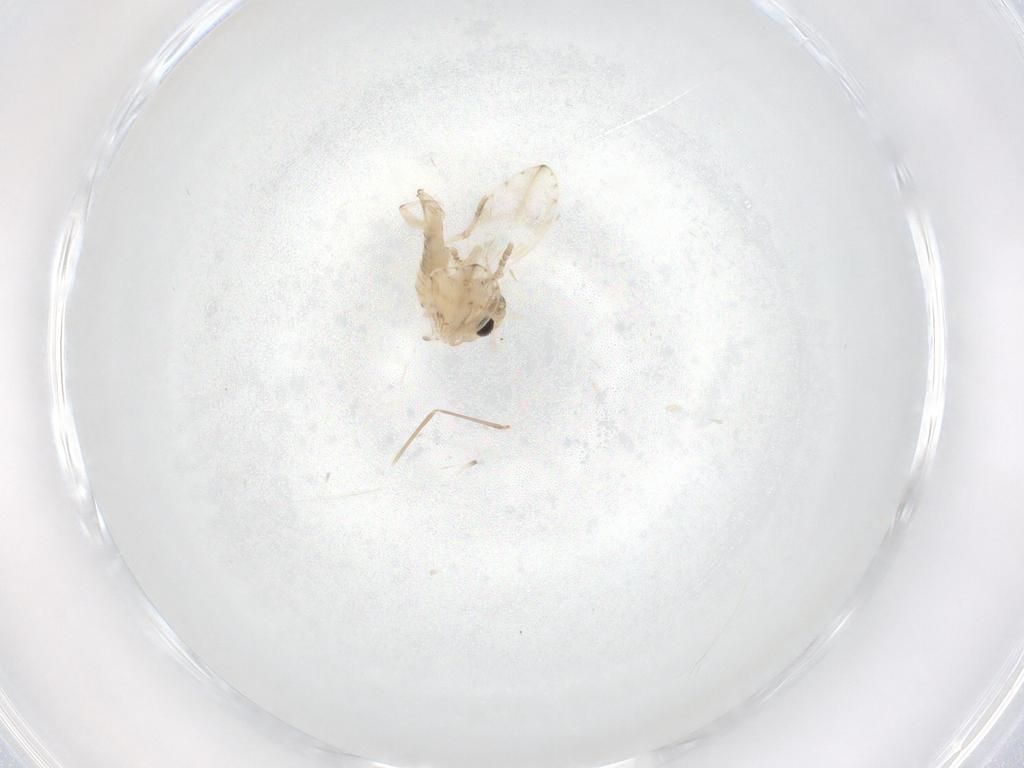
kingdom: Animalia
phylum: Arthropoda
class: Insecta
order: Diptera
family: Psychodidae
